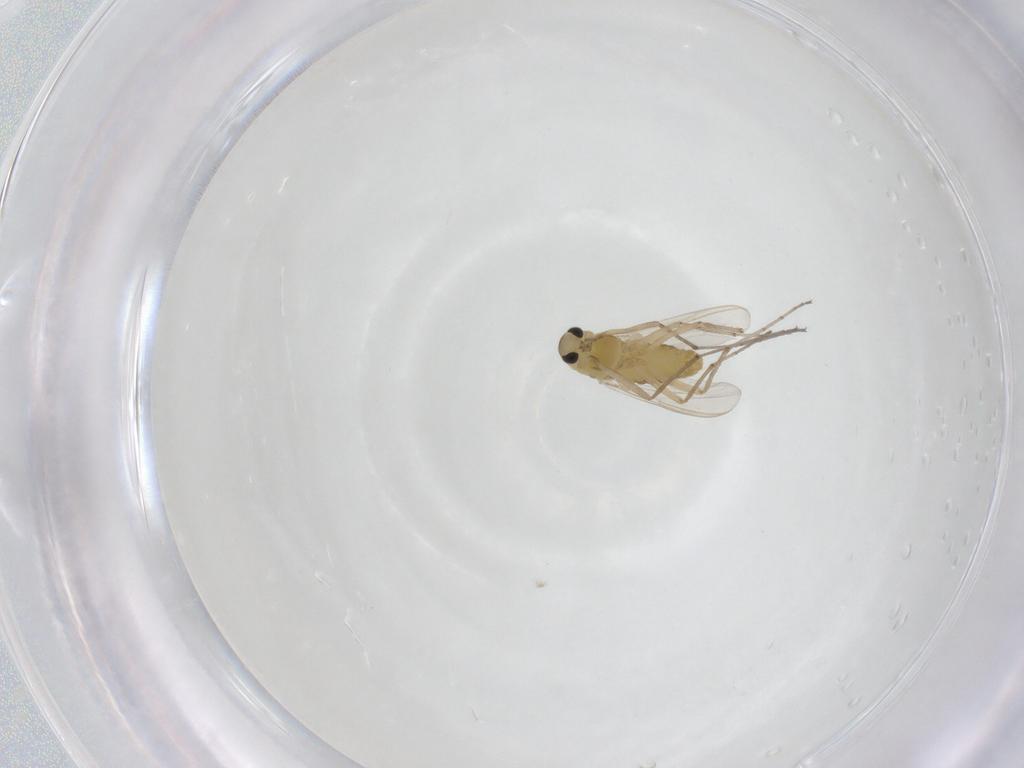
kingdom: Animalia
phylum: Arthropoda
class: Insecta
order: Diptera
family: Chironomidae
